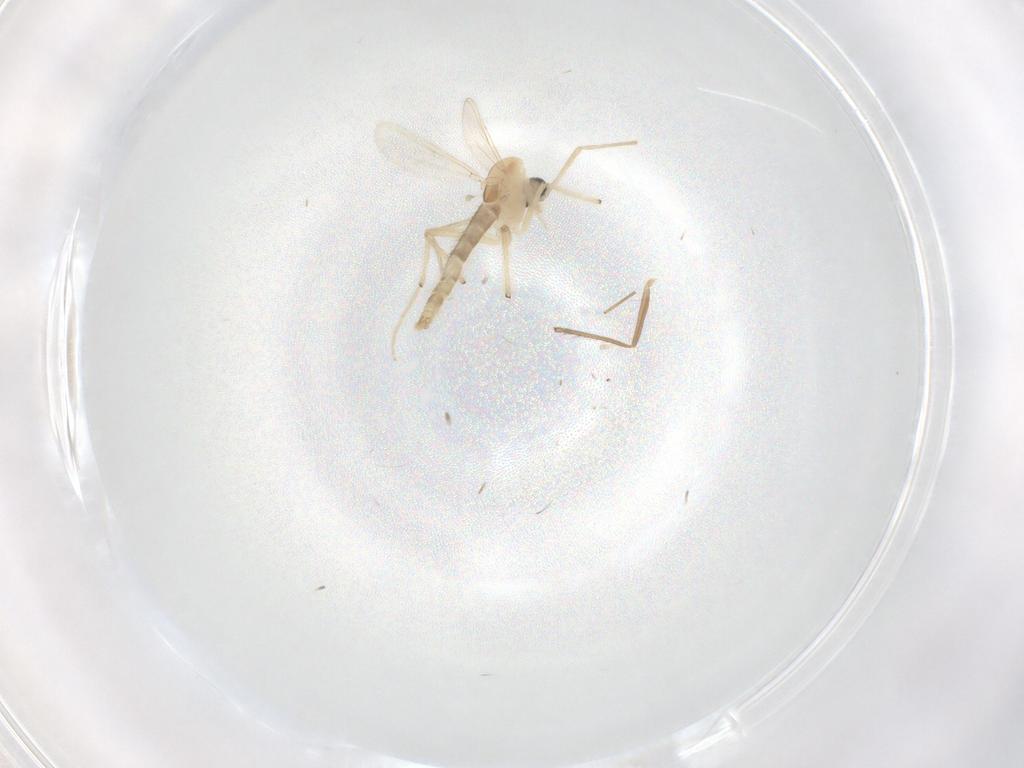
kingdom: Animalia
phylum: Arthropoda
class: Insecta
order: Diptera
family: Chironomidae
